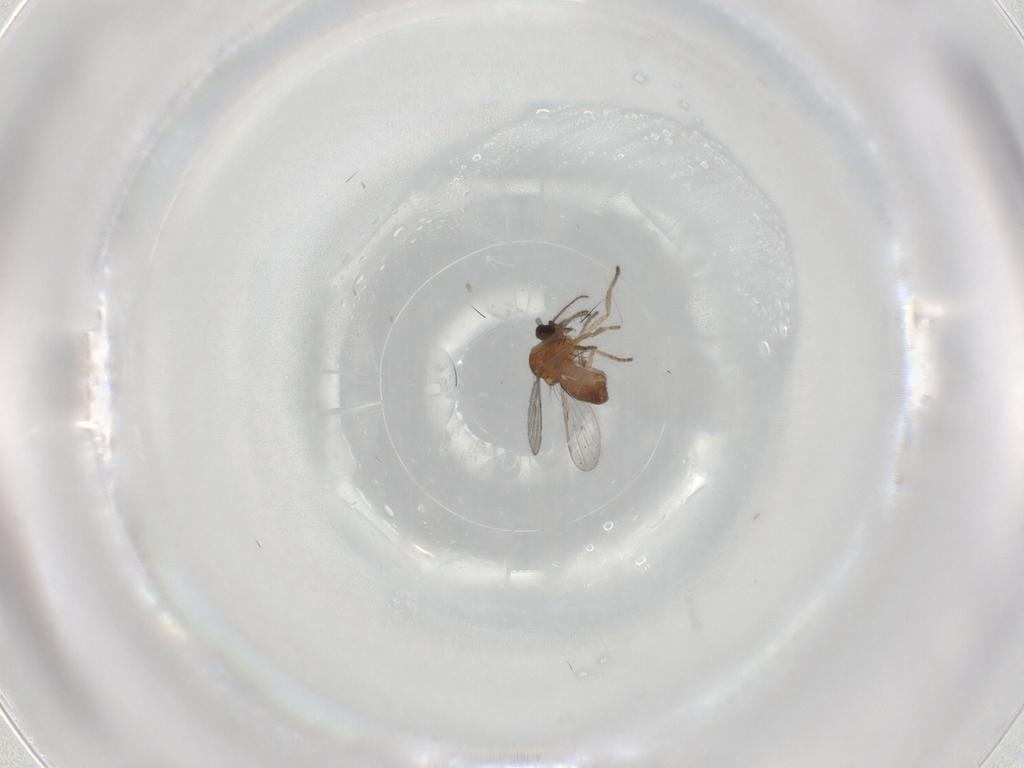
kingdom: Animalia
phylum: Arthropoda
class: Insecta
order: Diptera
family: Ceratopogonidae
